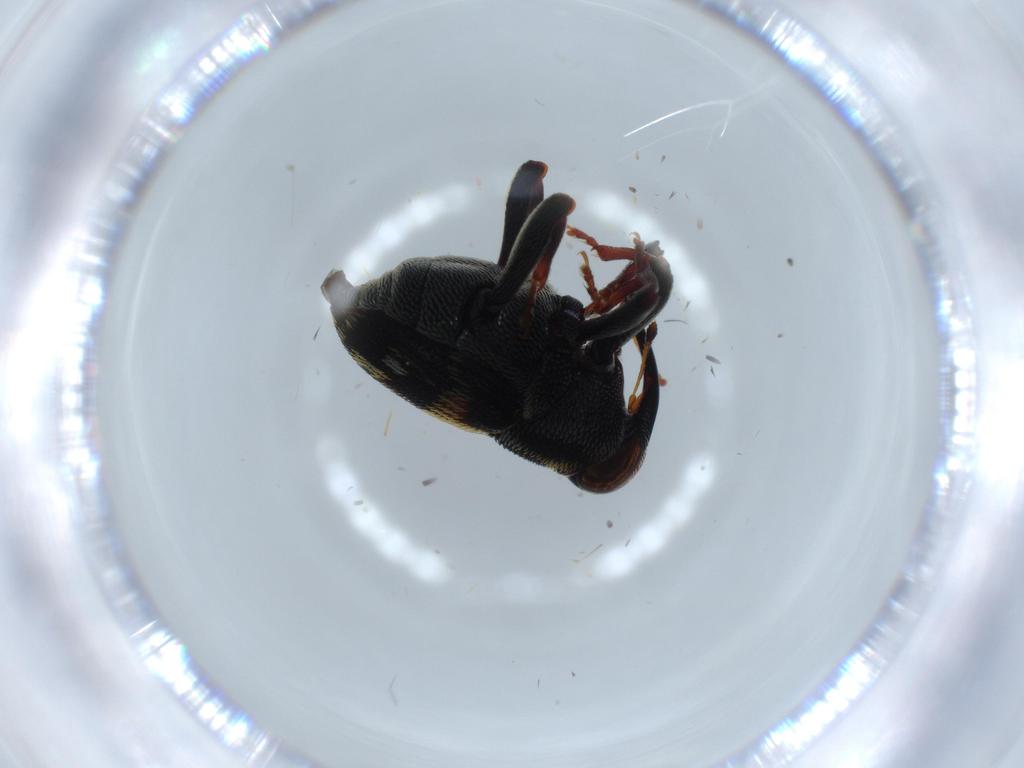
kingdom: Animalia
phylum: Arthropoda
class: Insecta
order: Coleoptera
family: Curculionidae
